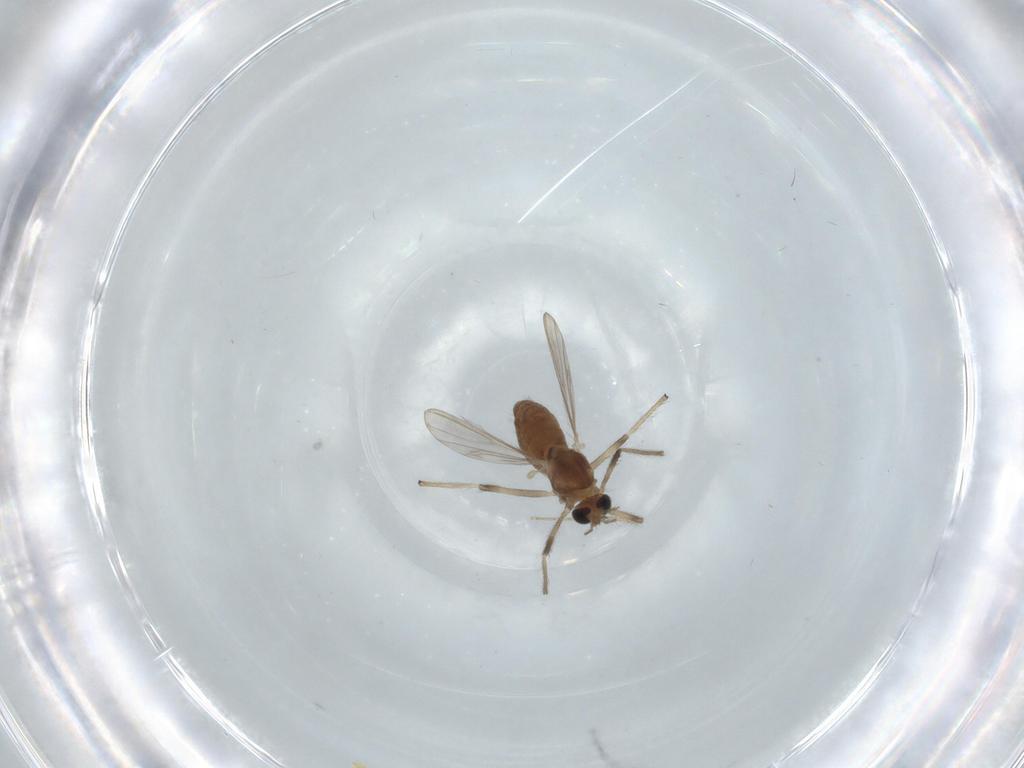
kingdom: Animalia
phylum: Arthropoda
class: Insecta
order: Diptera
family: Chironomidae
